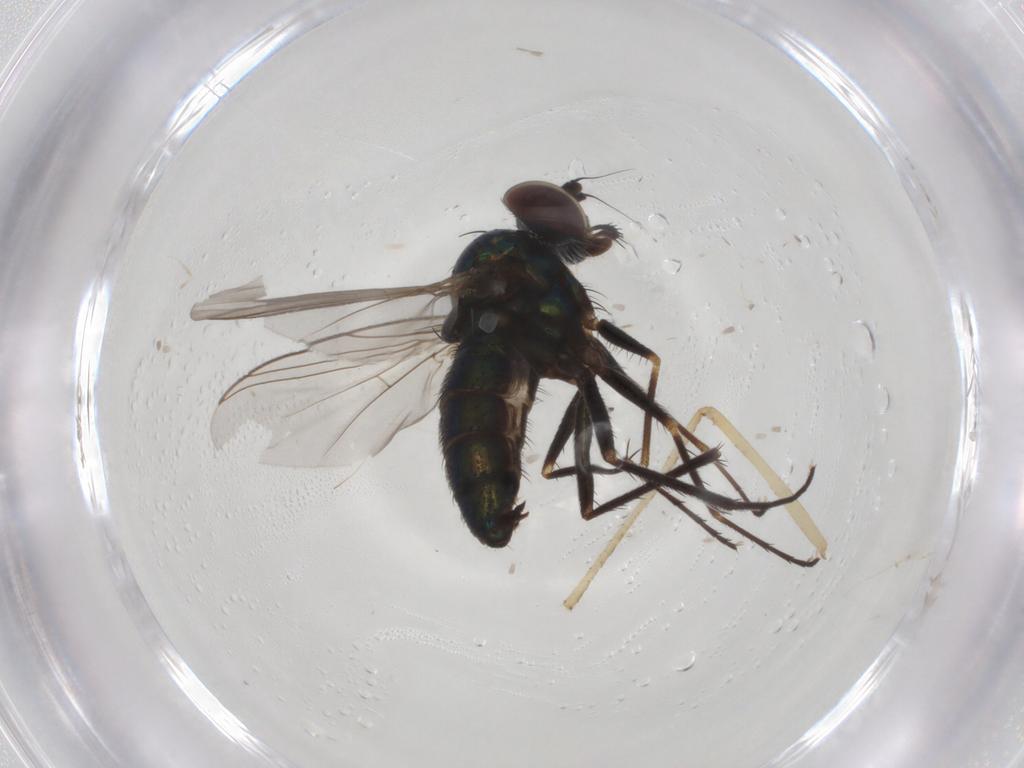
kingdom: Animalia
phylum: Arthropoda
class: Insecta
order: Diptera
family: Dolichopodidae
